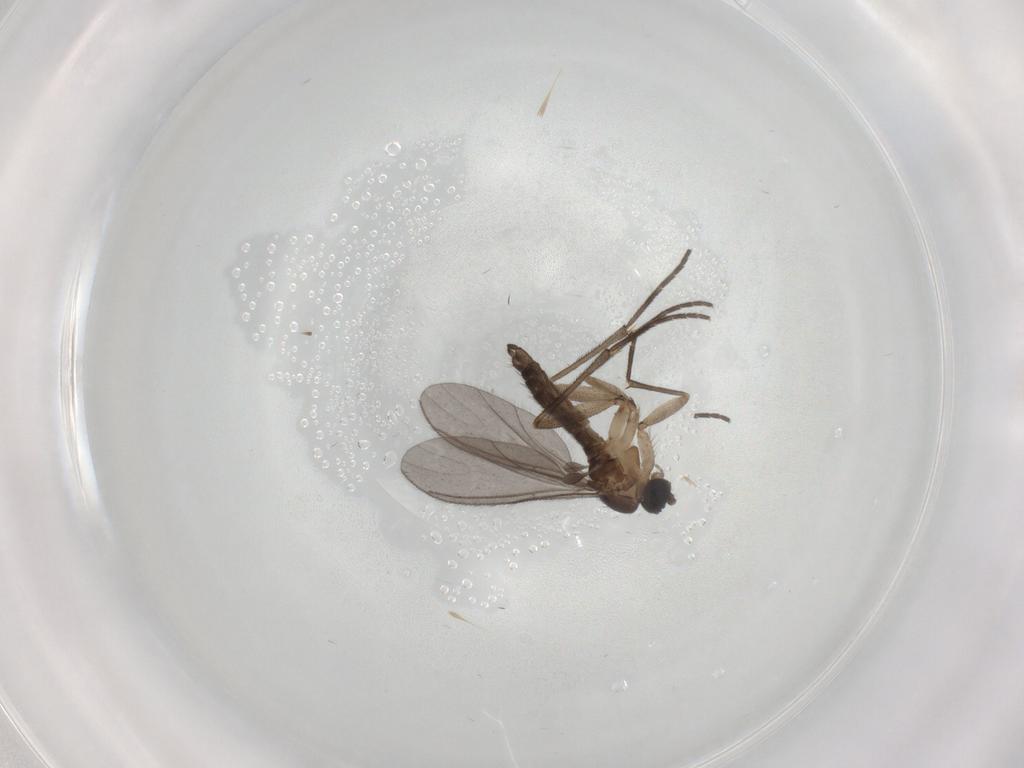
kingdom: Animalia
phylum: Arthropoda
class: Insecta
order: Diptera
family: Sciaridae
